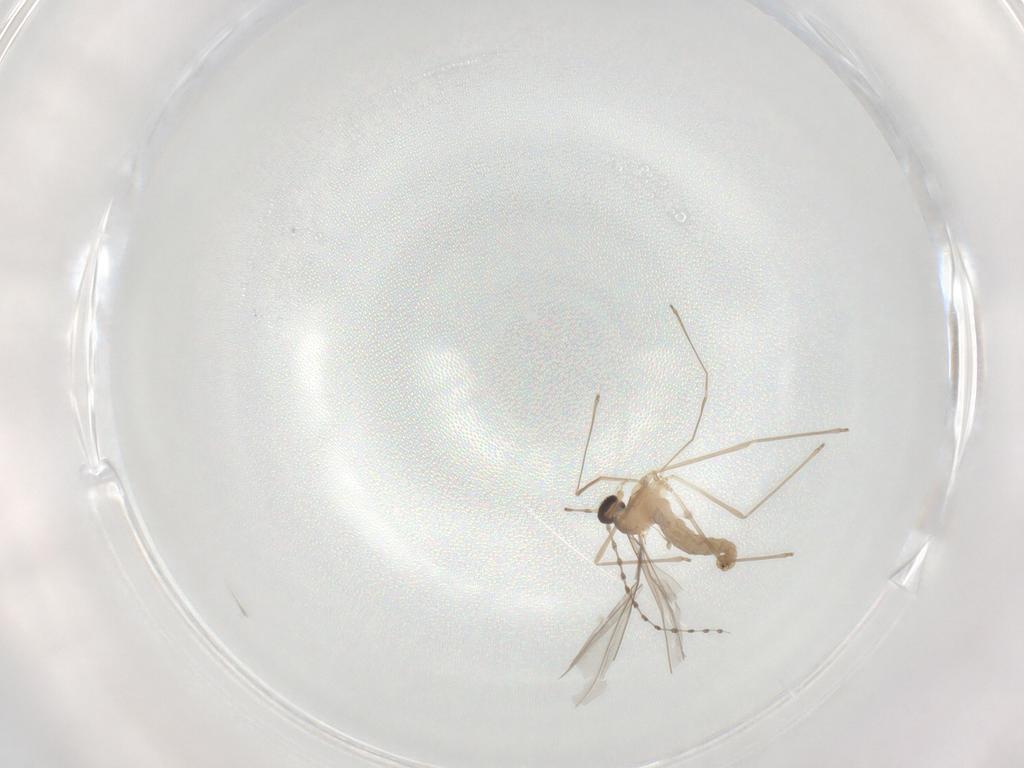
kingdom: Animalia
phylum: Arthropoda
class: Insecta
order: Diptera
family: Cecidomyiidae
